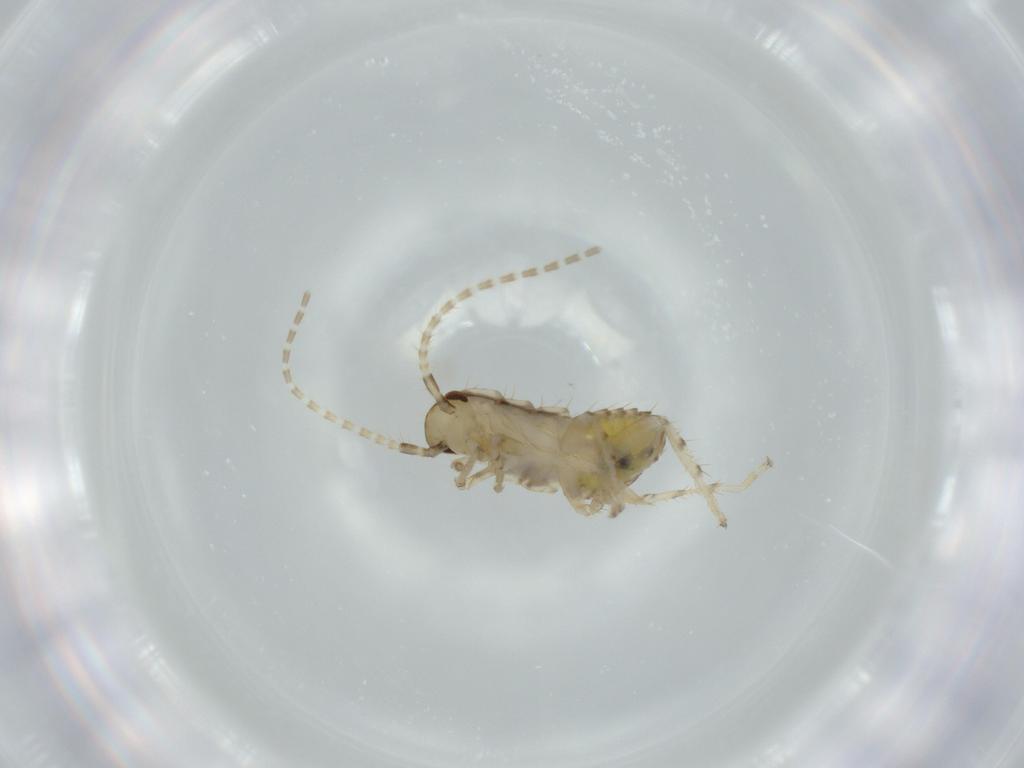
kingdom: Animalia
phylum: Arthropoda
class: Insecta
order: Blattodea
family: Ectobiidae
